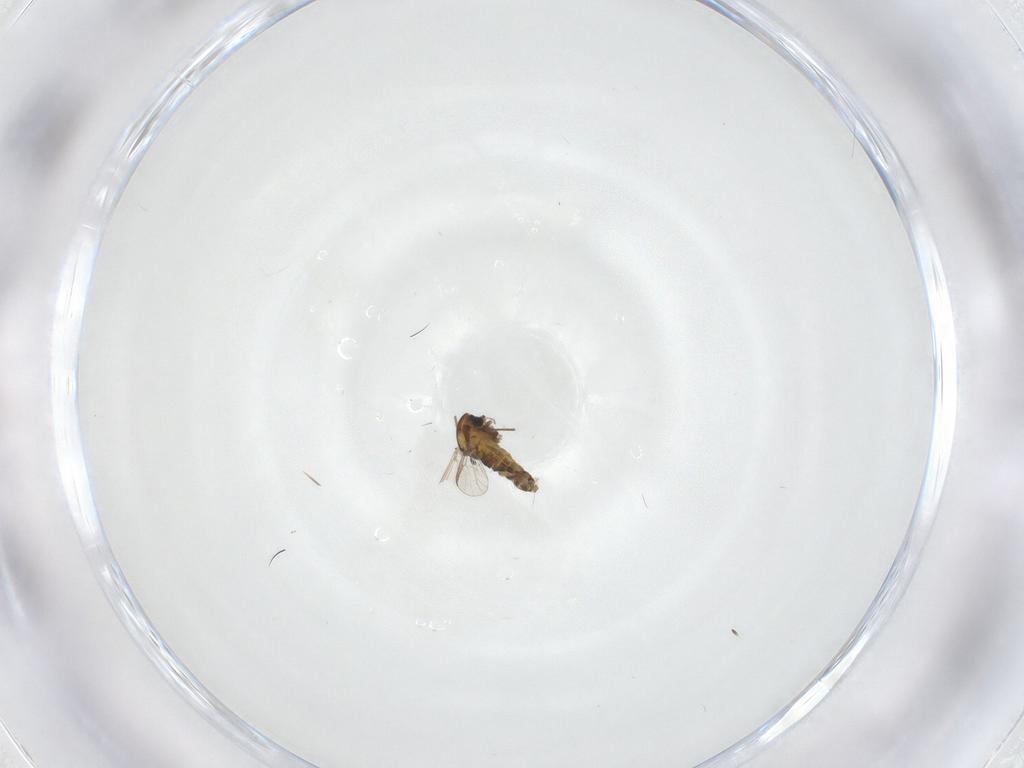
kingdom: Animalia
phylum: Arthropoda
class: Insecta
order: Diptera
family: Chironomidae
